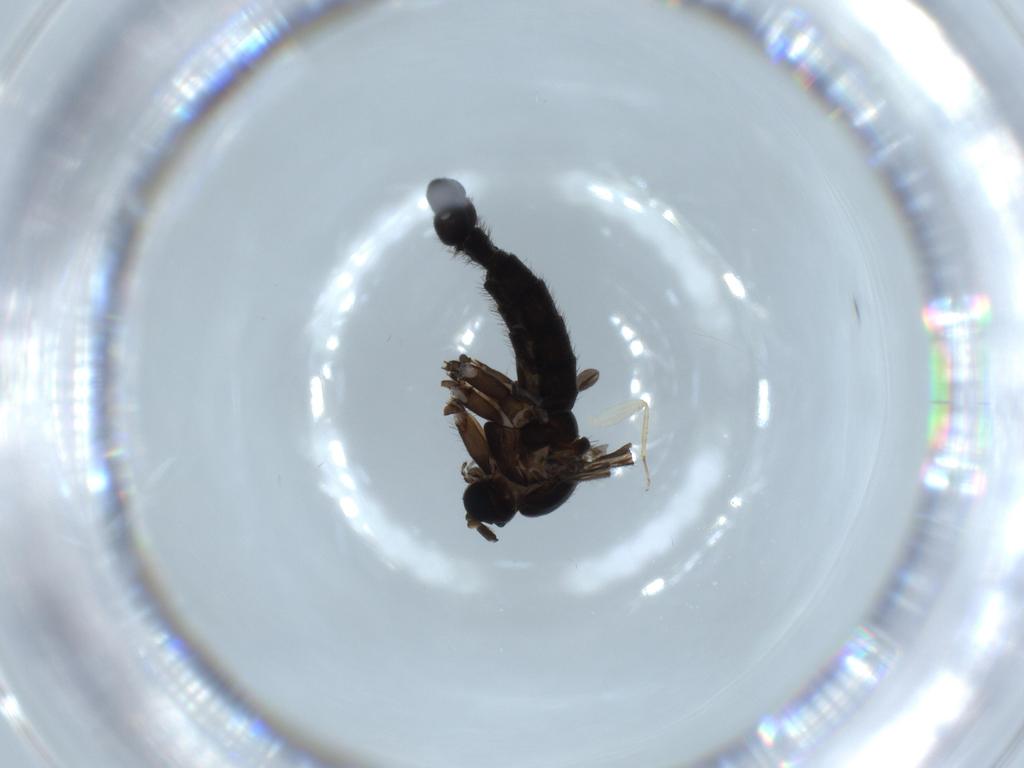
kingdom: Animalia
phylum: Arthropoda
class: Insecta
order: Diptera
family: Sciaridae
